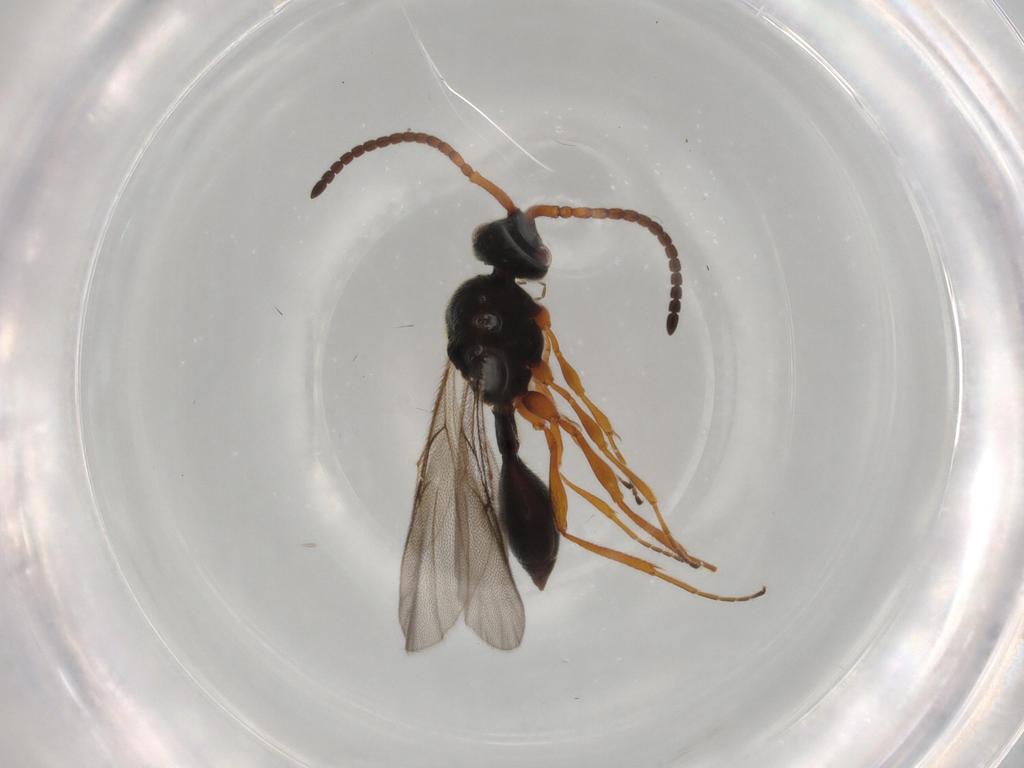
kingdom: Animalia
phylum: Arthropoda
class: Insecta
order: Hymenoptera
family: Diapriidae
